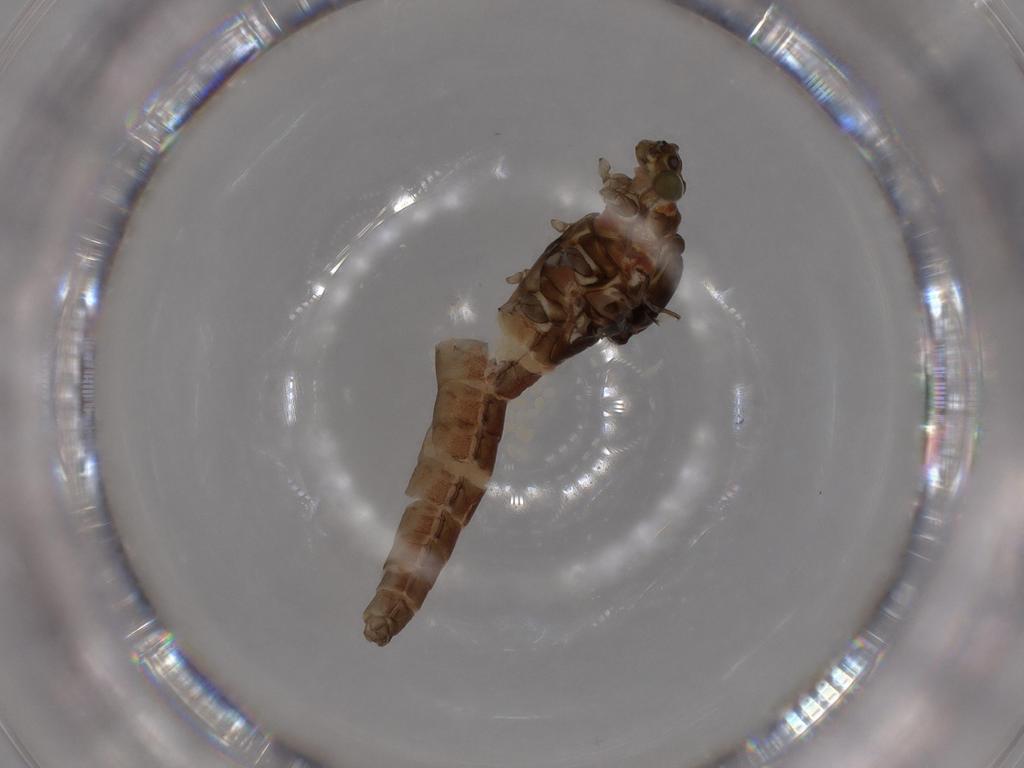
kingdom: Animalia
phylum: Arthropoda
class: Insecta
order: Ephemeroptera
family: Baetidae
